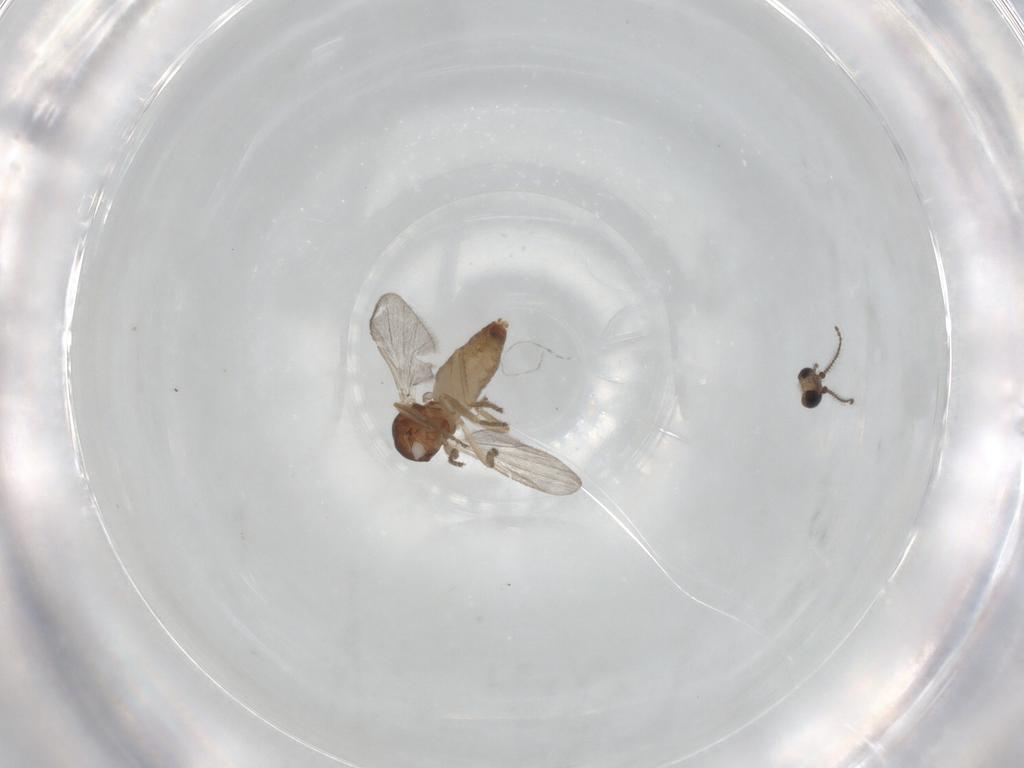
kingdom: Animalia
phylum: Arthropoda
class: Insecta
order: Diptera
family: Ceratopogonidae
